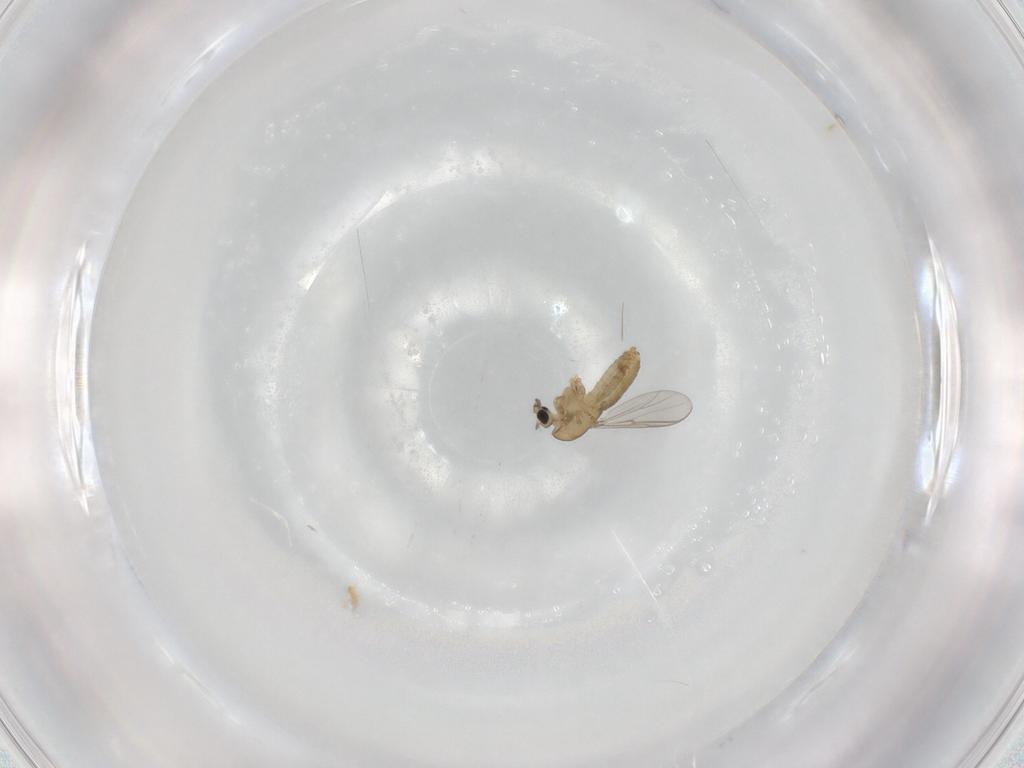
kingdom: Animalia
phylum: Arthropoda
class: Insecta
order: Diptera
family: Chironomidae
